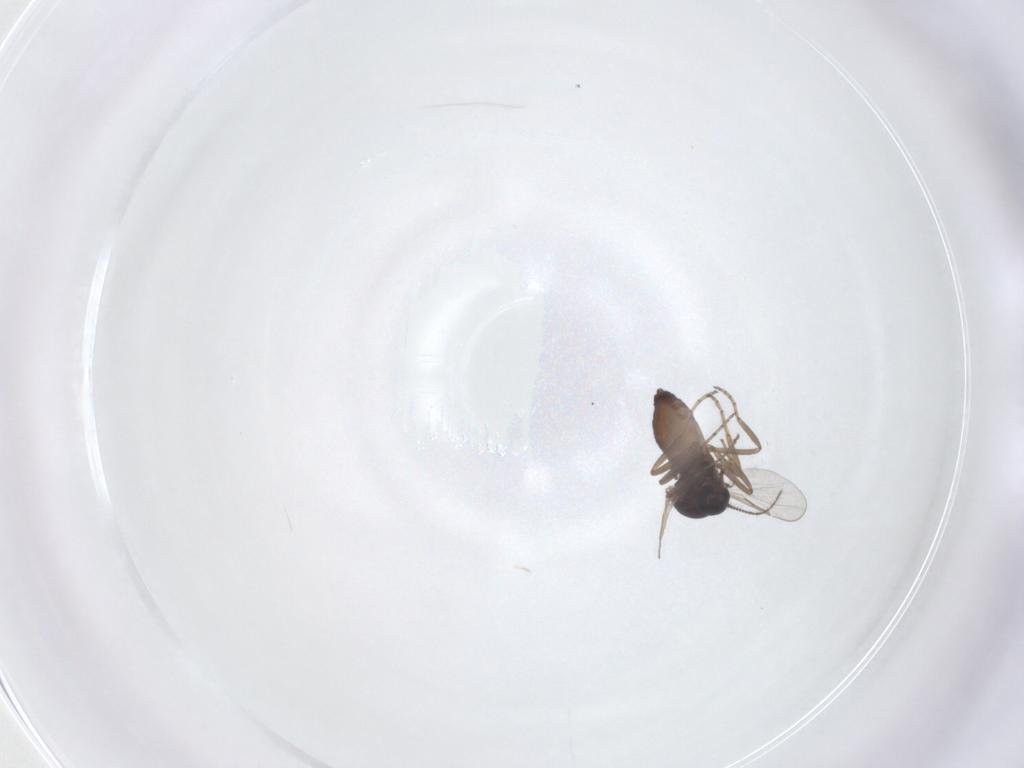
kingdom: Animalia
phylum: Arthropoda
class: Insecta
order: Diptera
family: Ceratopogonidae
